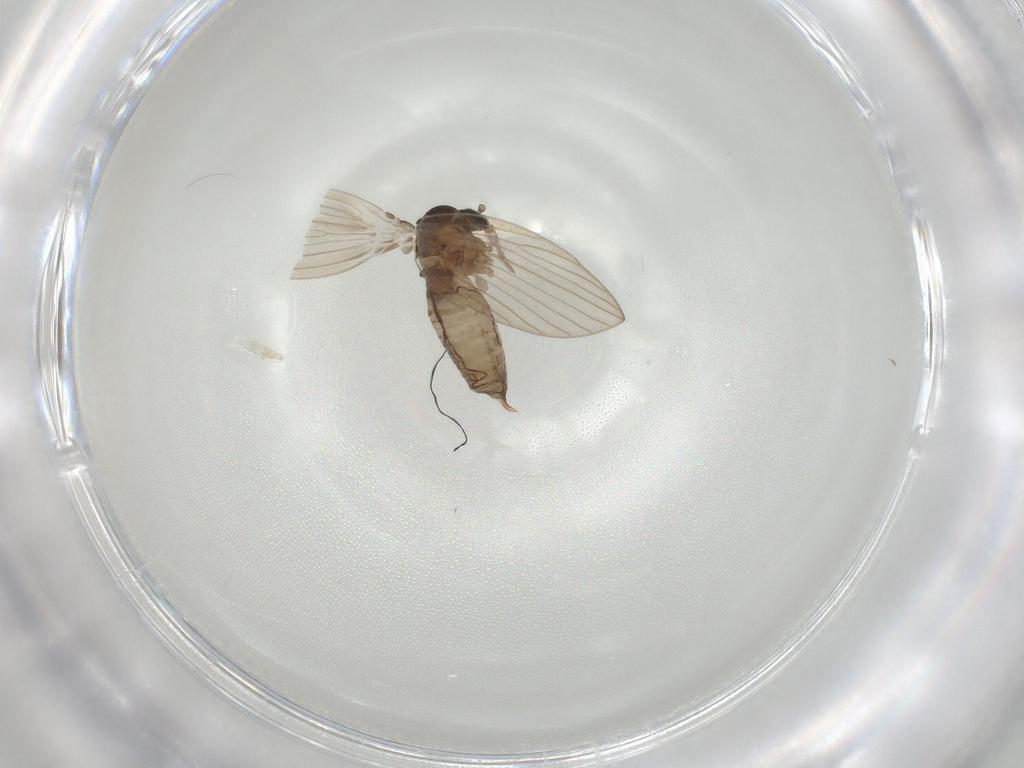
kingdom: Animalia
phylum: Arthropoda
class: Insecta
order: Diptera
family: Psychodidae
